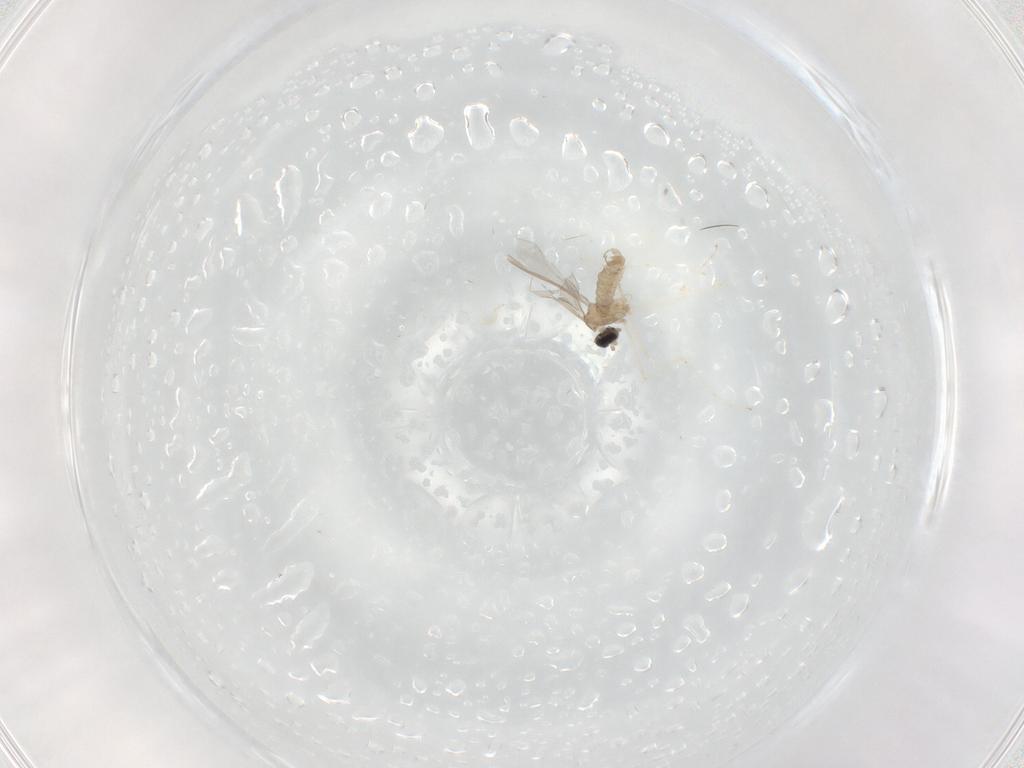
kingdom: Animalia
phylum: Arthropoda
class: Insecta
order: Diptera
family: Cecidomyiidae
